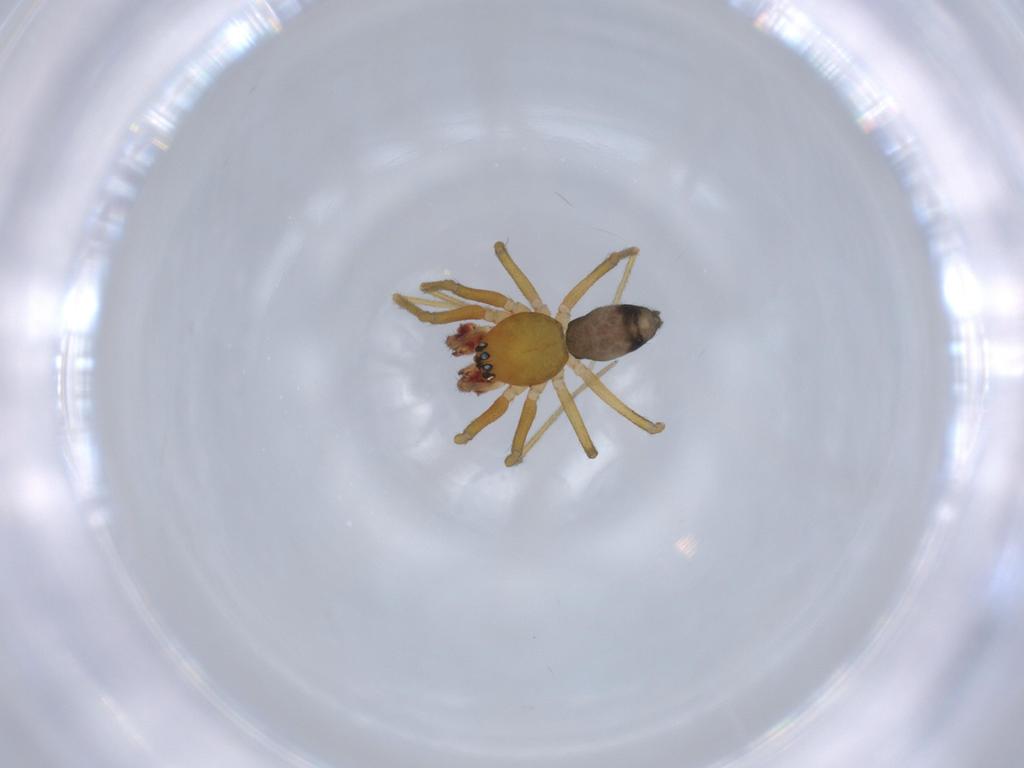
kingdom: Animalia
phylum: Arthropoda
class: Arachnida
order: Araneae
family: Linyphiidae
